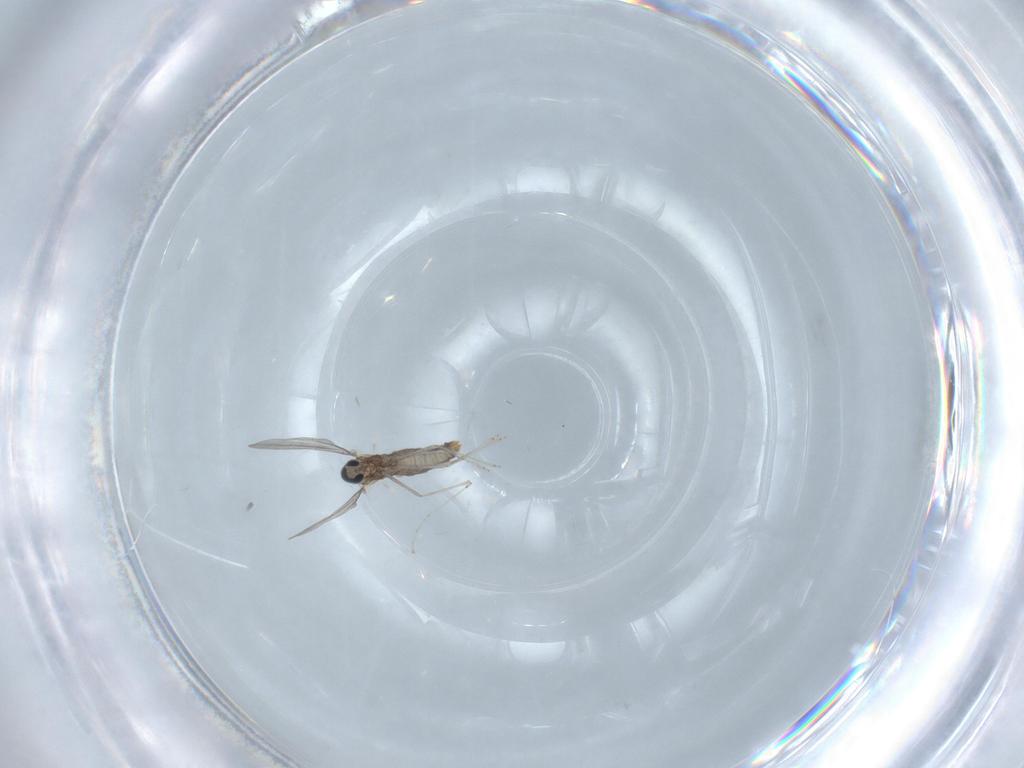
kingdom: Animalia
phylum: Arthropoda
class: Insecta
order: Diptera
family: Cecidomyiidae
